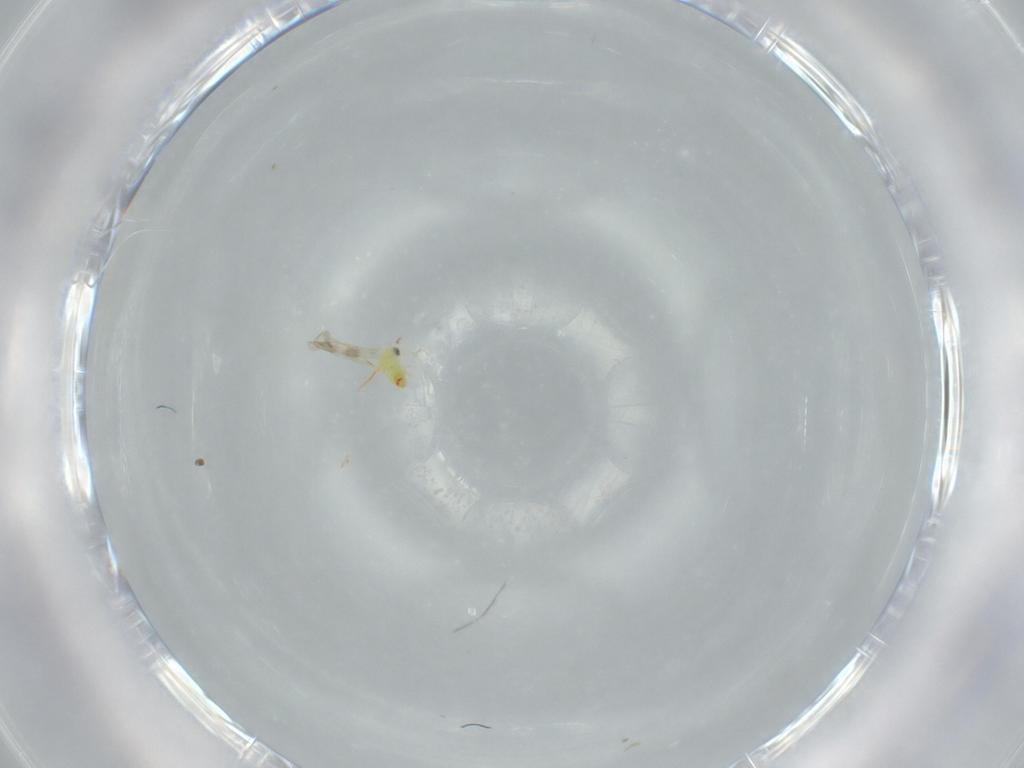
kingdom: Animalia
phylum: Arthropoda
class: Insecta
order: Hemiptera
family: Aleyrodidae
